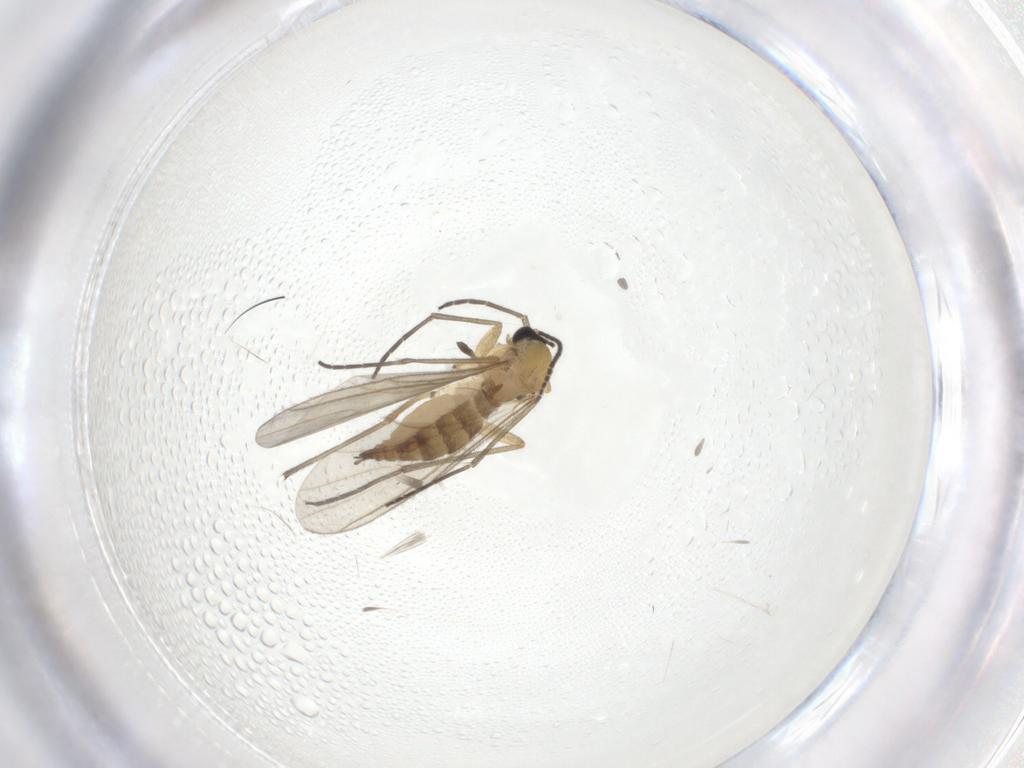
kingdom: Animalia
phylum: Arthropoda
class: Insecta
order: Diptera
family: Sciaridae
